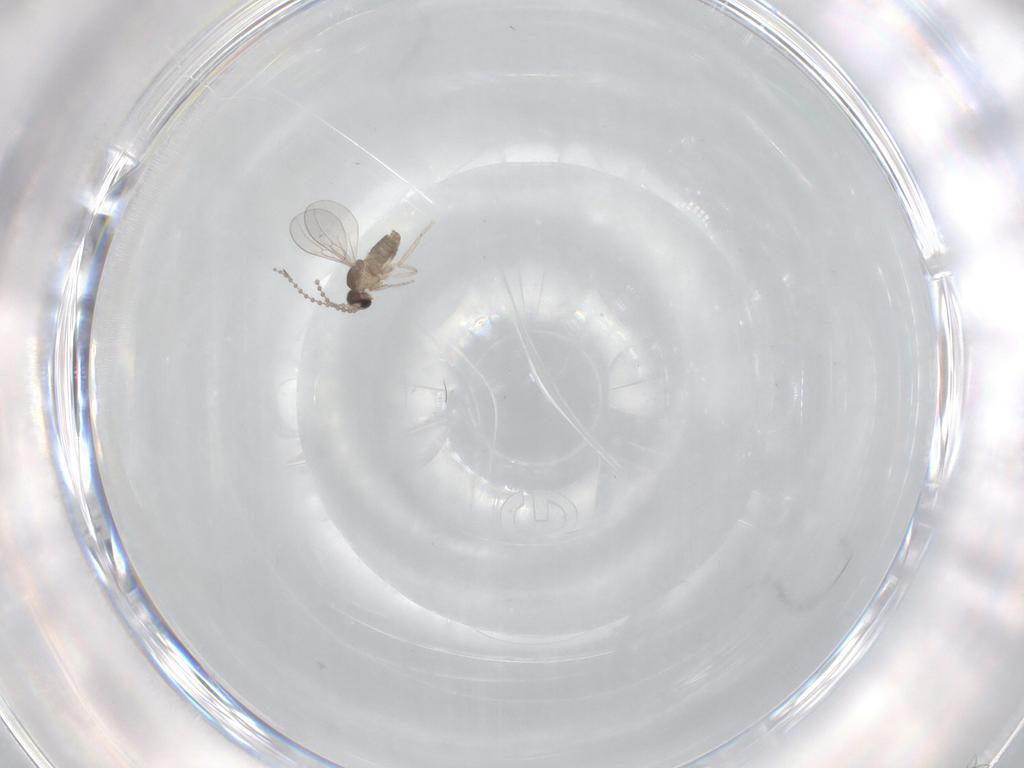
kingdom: Animalia
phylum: Arthropoda
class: Insecta
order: Diptera
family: Cecidomyiidae
